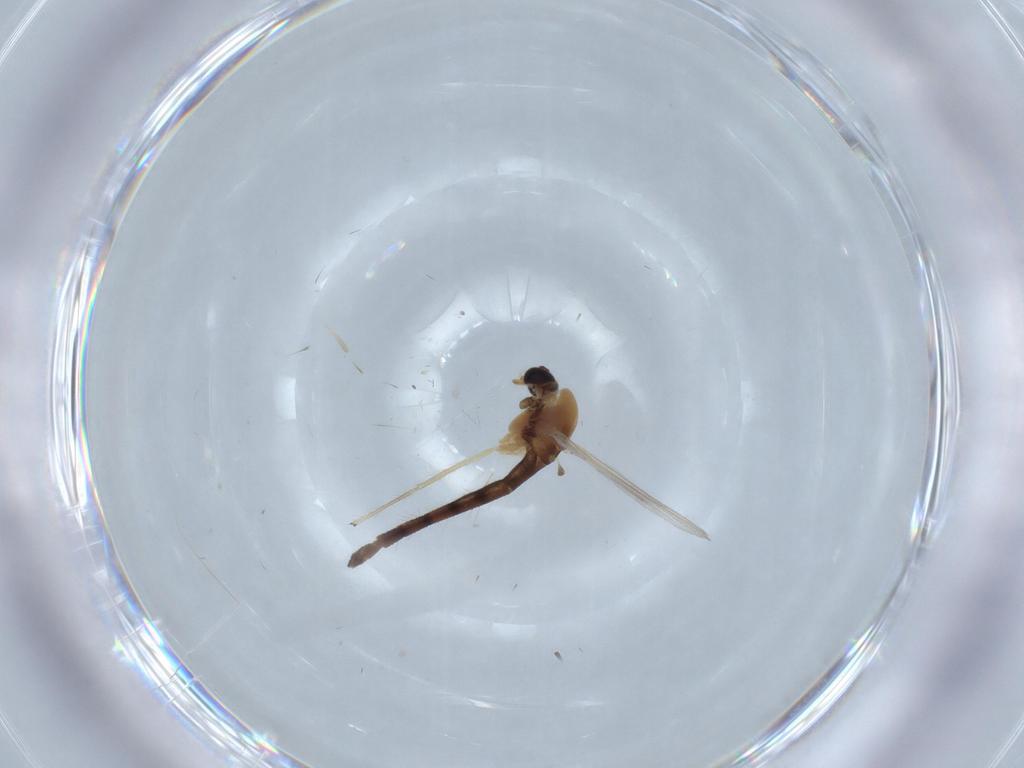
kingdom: Animalia
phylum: Arthropoda
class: Insecta
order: Diptera
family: Chironomidae
